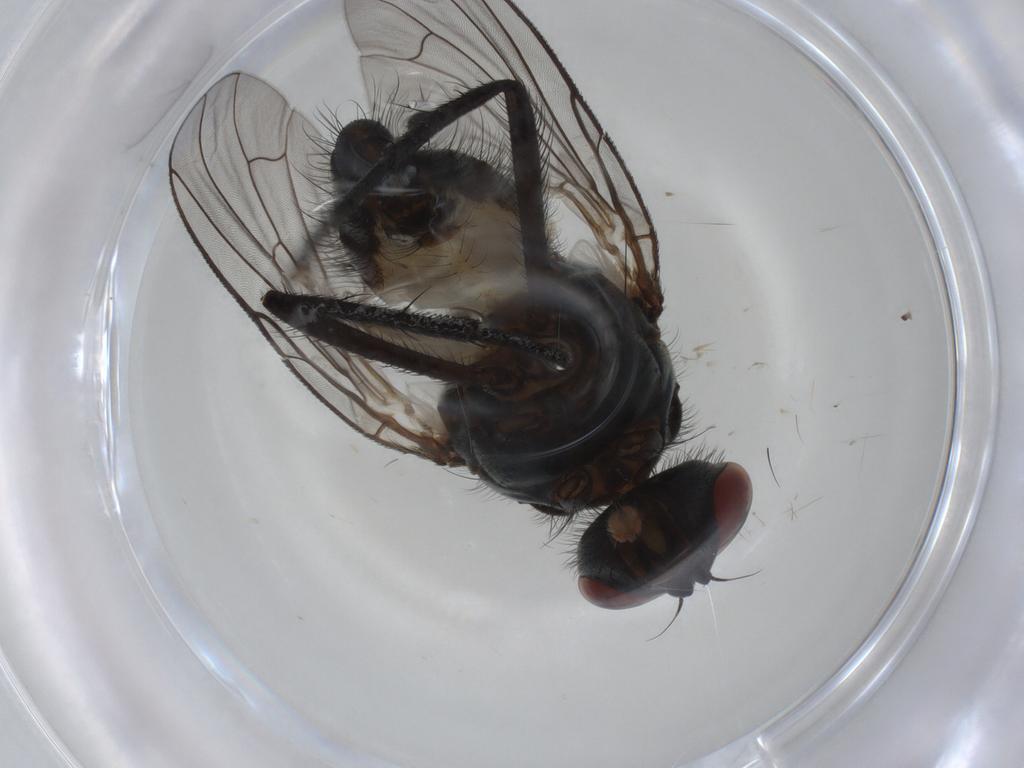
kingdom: Animalia
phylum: Arthropoda
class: Insecta
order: Diptera
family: Anthomyiidae
